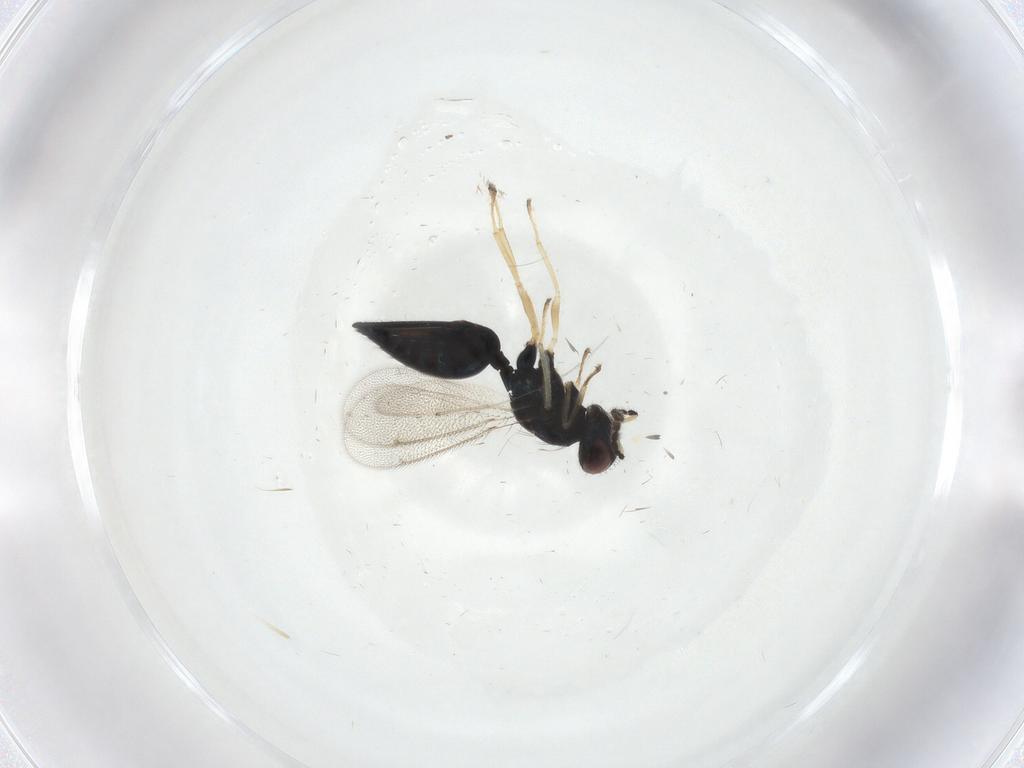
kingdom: Animalia
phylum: Arthropoda
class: Insecta
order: Hymenoptera
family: Eulophidae
